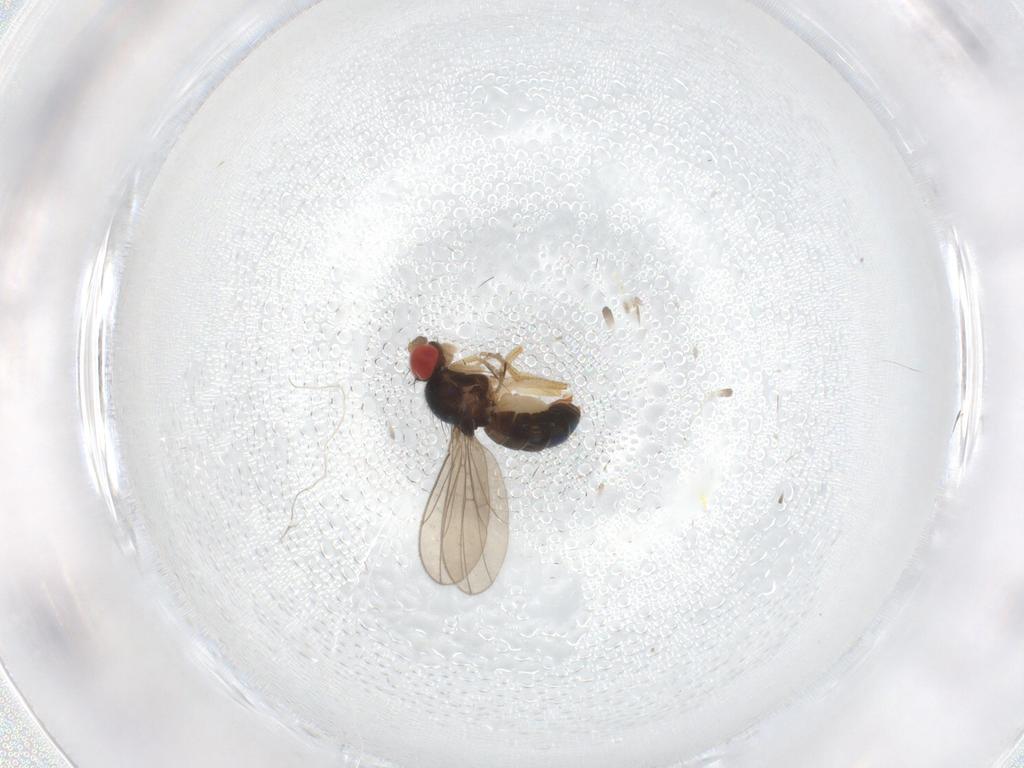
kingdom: Animalia
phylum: Arthropoda
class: Insecta
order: Diptera
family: Drosophilidae
